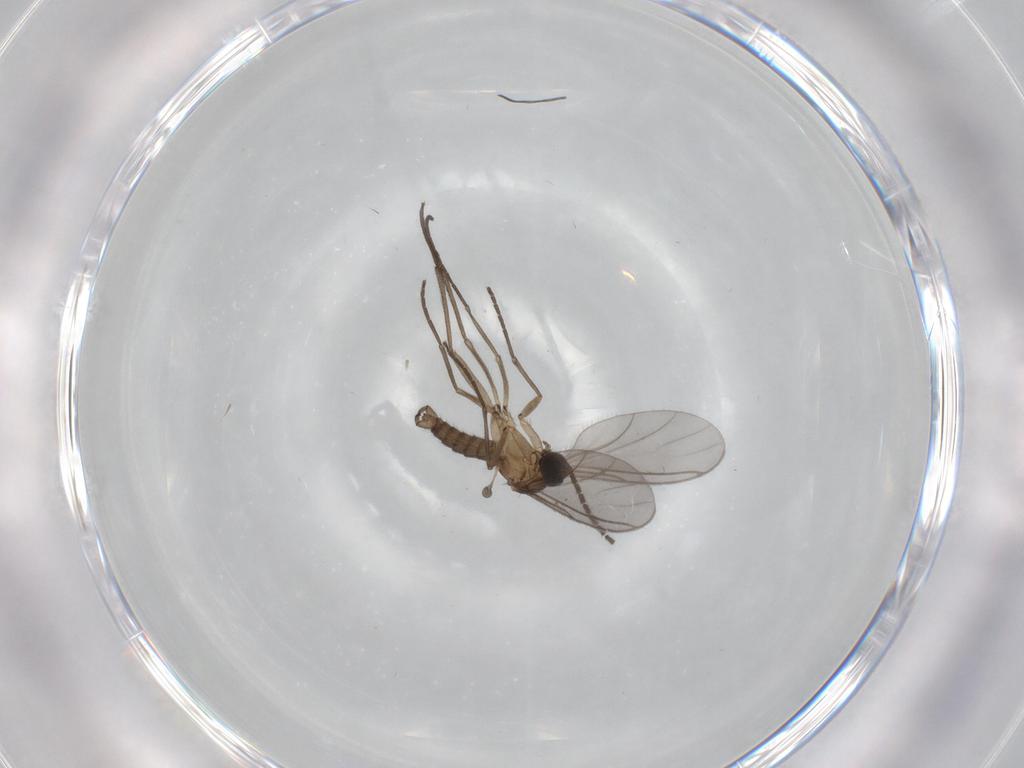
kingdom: Animalia
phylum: Arthropoda
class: Insecta
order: Diptera
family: Sciaridae
